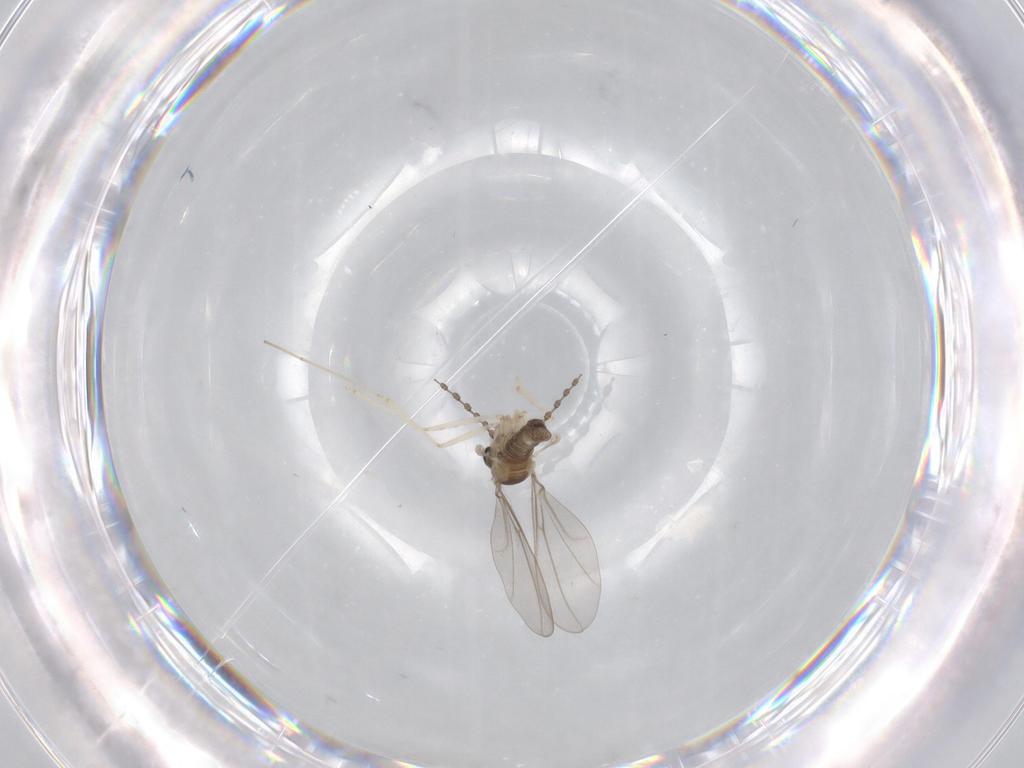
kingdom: Animalia
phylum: Arthropoda
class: Insecta
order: Diptera
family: Cecidomyiidae
